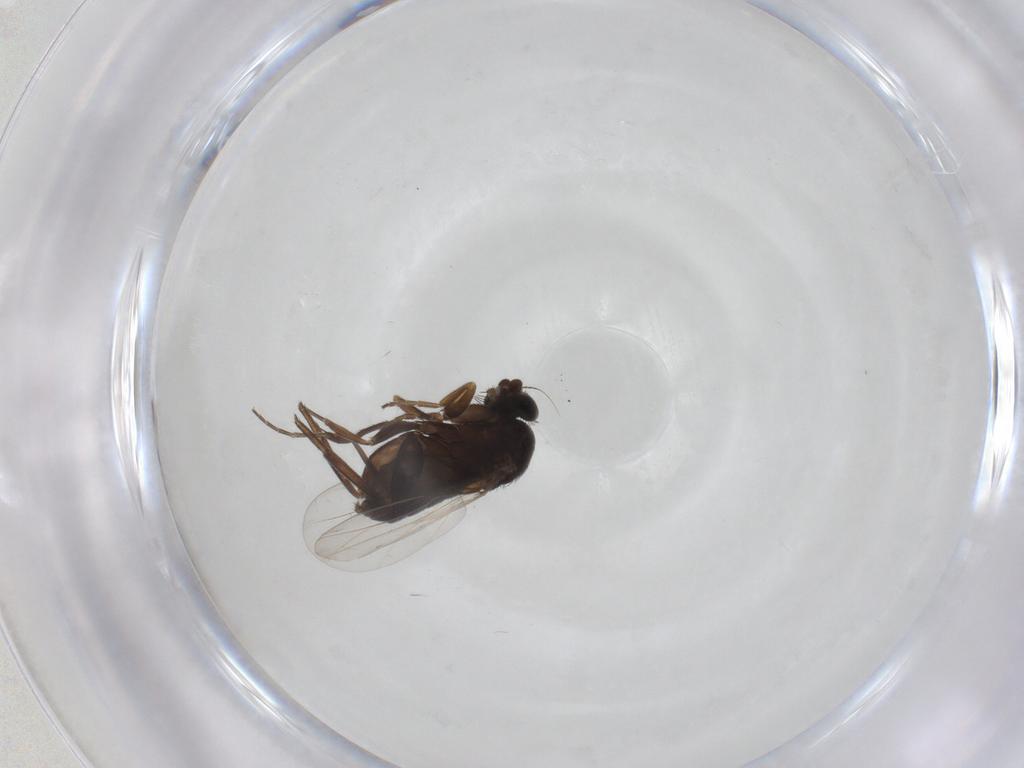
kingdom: Animalia
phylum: Arthropoda
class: Insecta
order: Diptera
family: Phoridae
